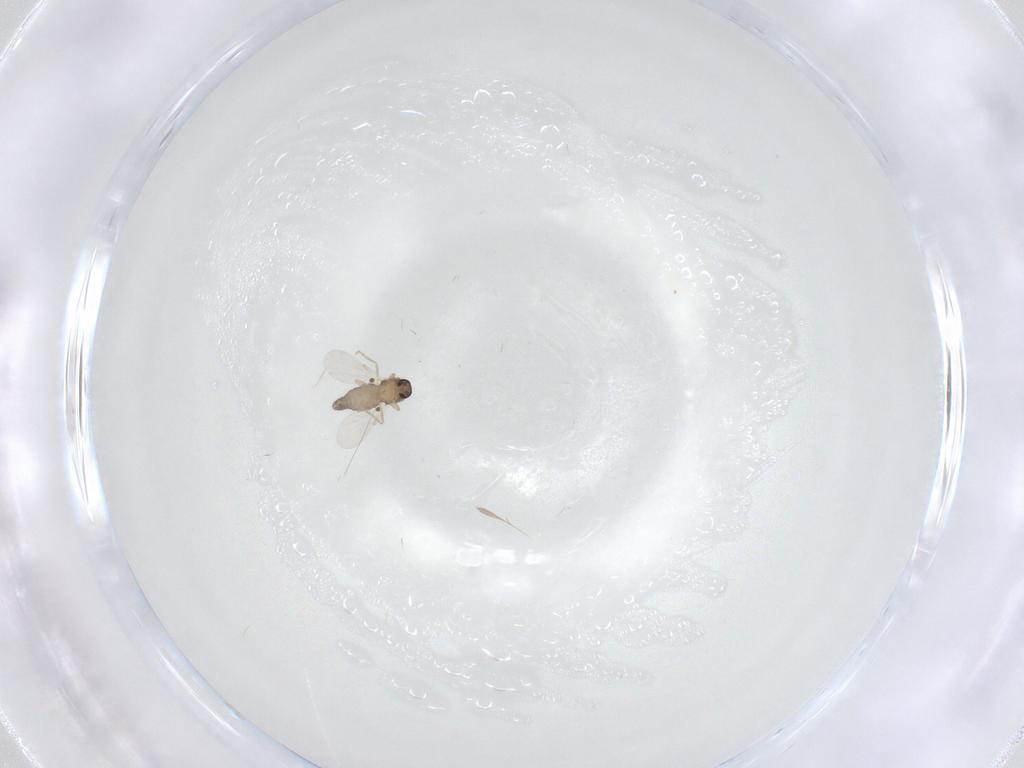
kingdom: Animalia
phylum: Arthropoda
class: Insecta
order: Diptera
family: Ceratopogonidae
